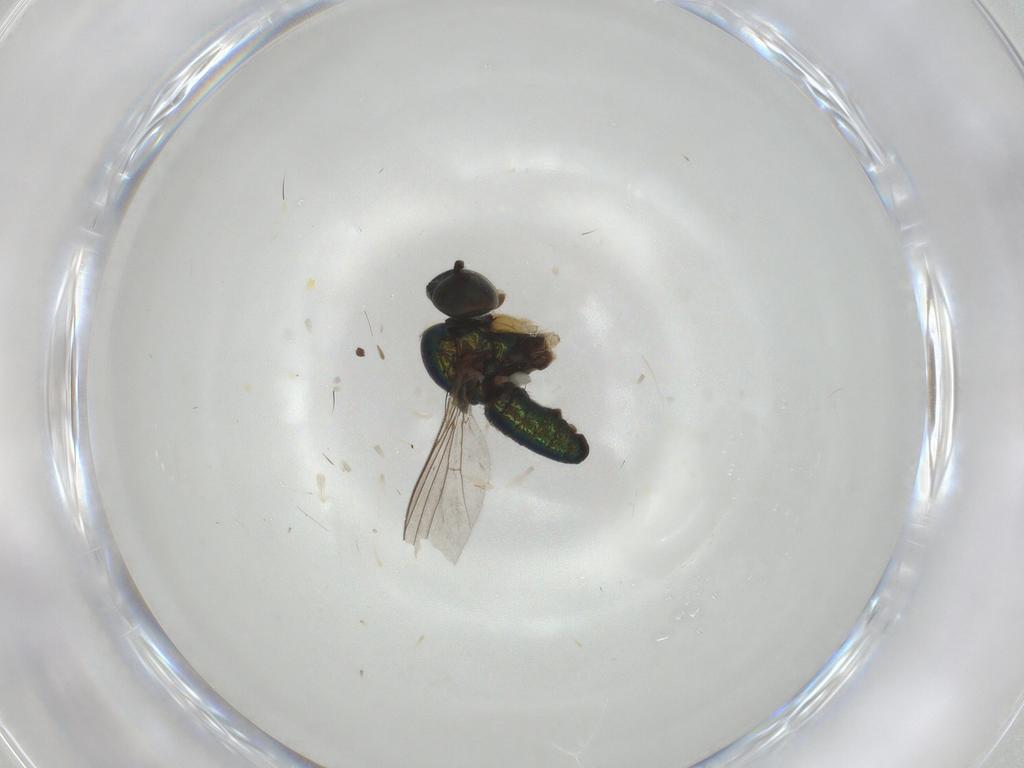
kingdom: Animalia
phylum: Arthropoda
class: Insecta
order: Diptera
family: Dolichopodidae
